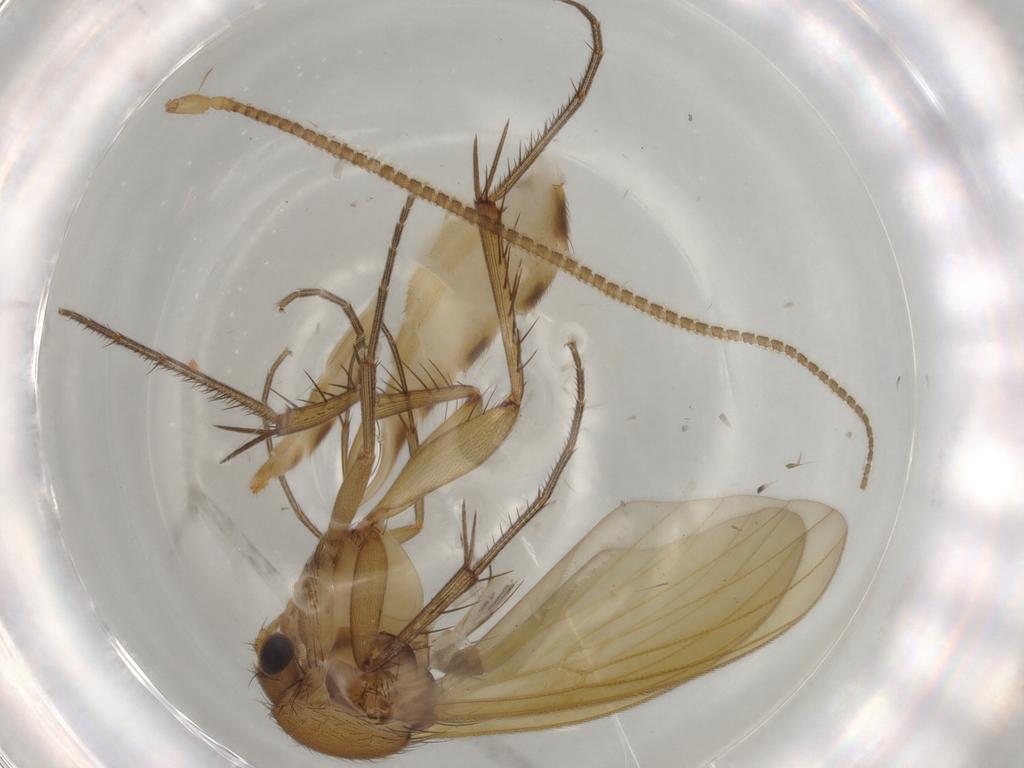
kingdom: Animalia
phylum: Arthropoda
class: Insecta
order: Diptera
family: Mycetophilidae
